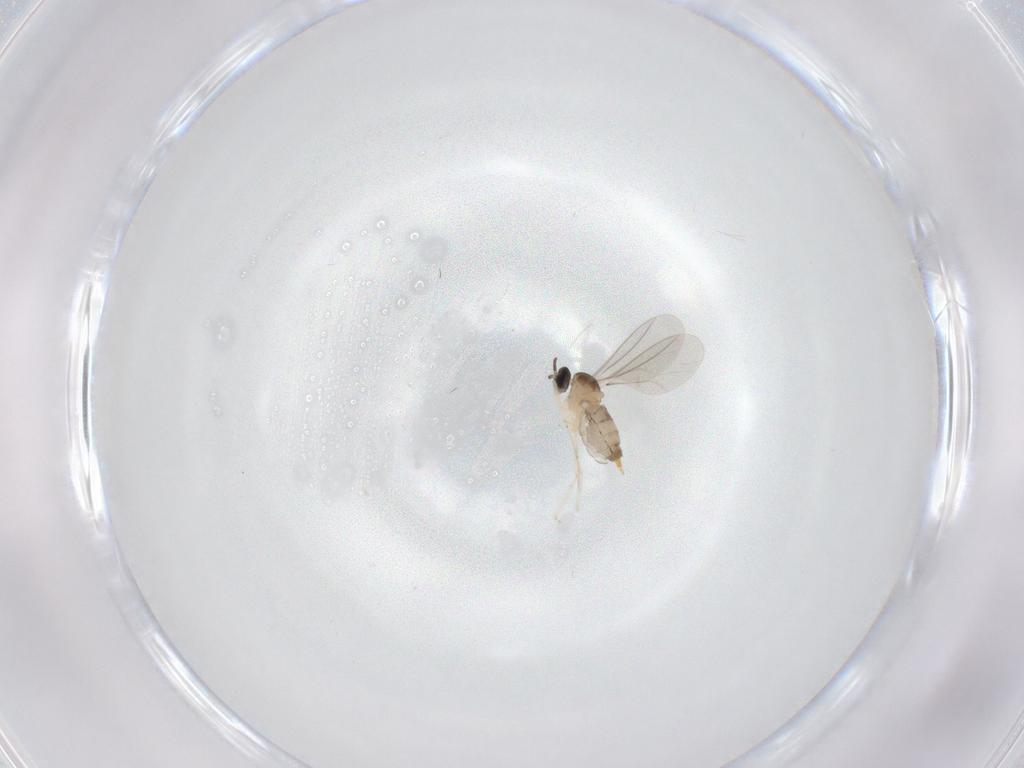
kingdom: Animalia
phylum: Arthropoda
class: Insecta
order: Diptera
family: Cecidomyiidae
